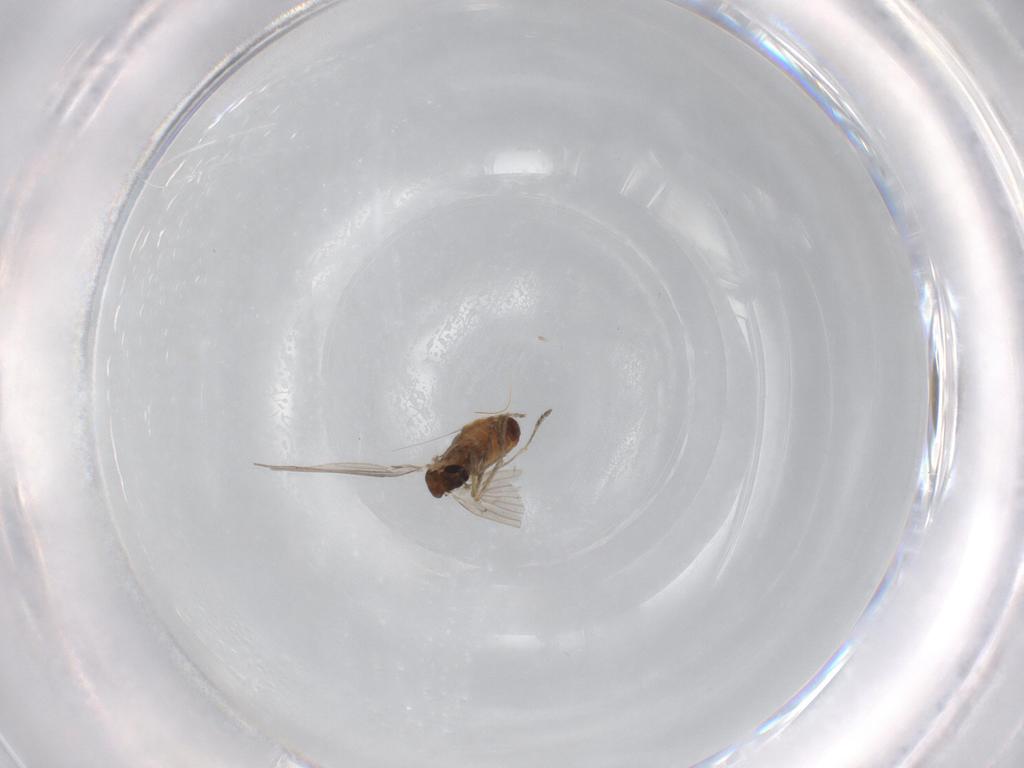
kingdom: Animalia
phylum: Arthropoda
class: Insecta
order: Diptera
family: Psychodidae
